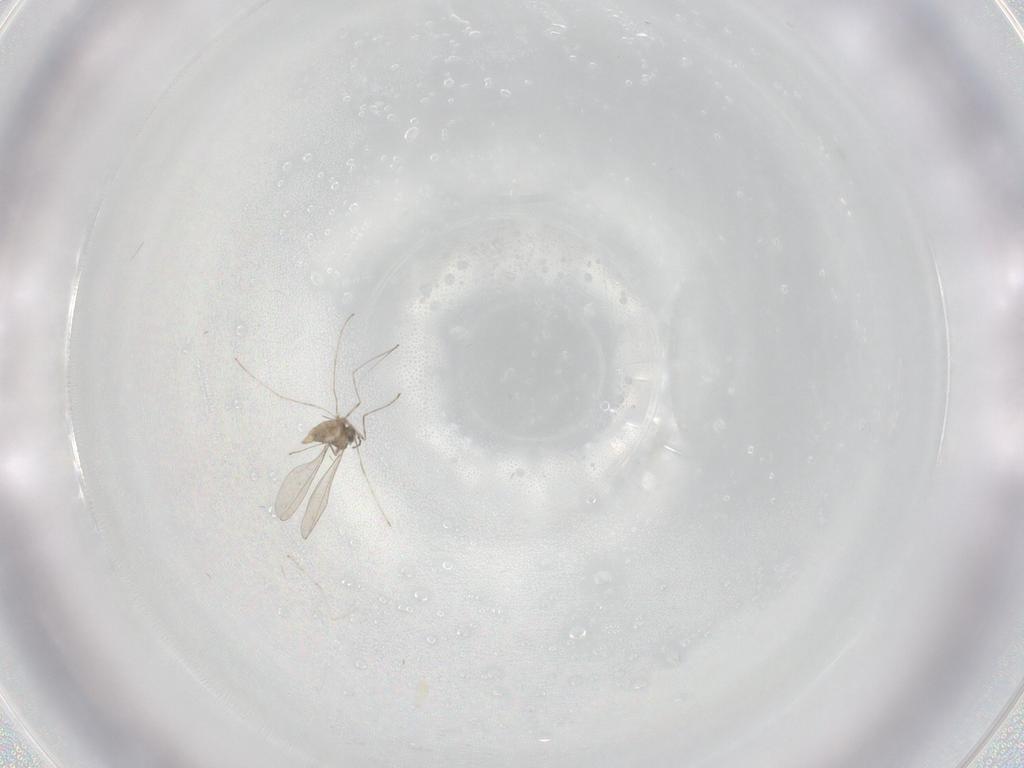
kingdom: Animalia
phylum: Arthropoda
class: Insecta
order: Diptera
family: Cecidomyiidae
